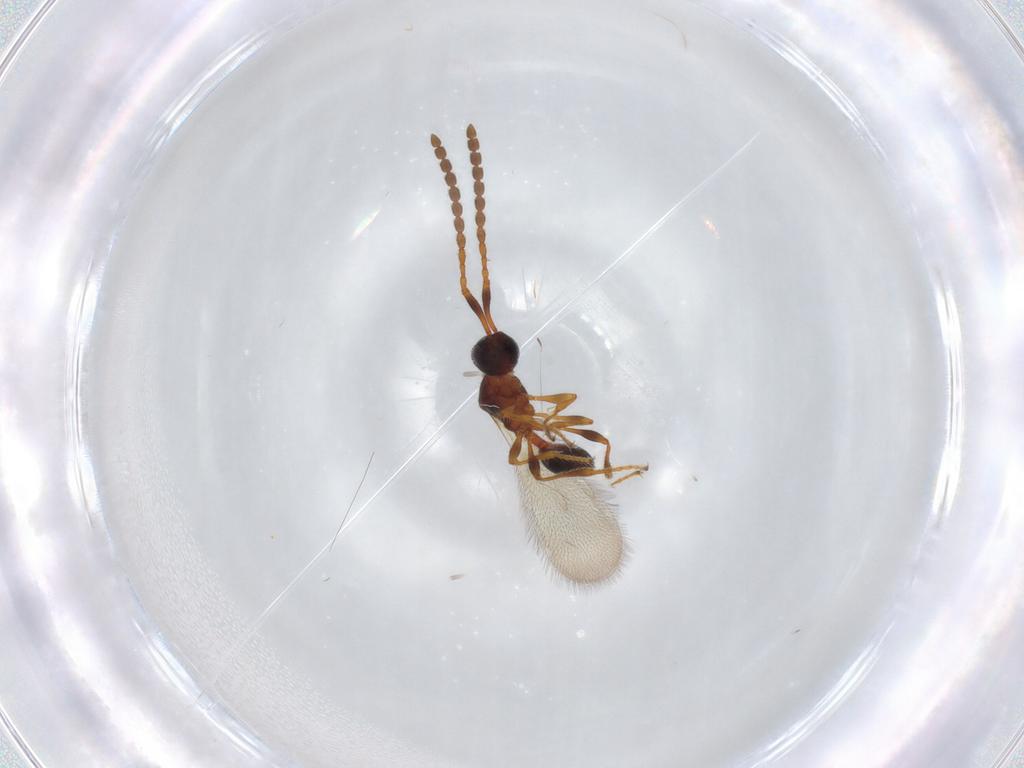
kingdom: Animalia
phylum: Arthropoda
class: Insecta
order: Hymenoptera
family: Diapriidae
